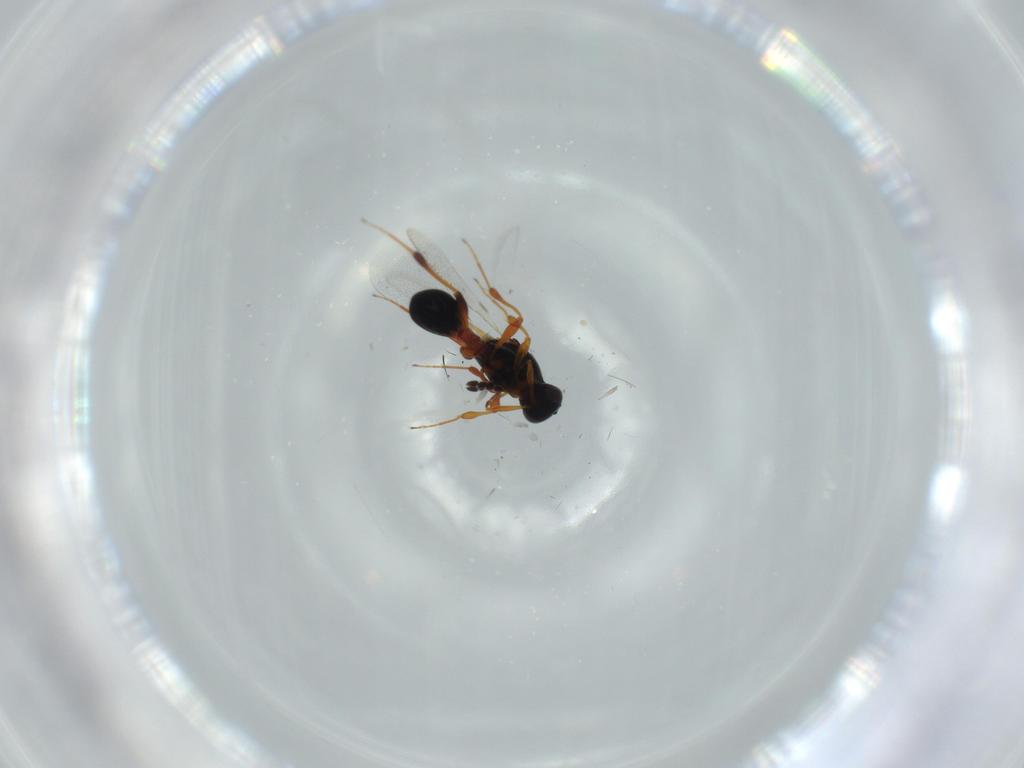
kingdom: Animalia
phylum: Arthropoda
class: Insecta
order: Hymenoptera
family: Platygastridae
